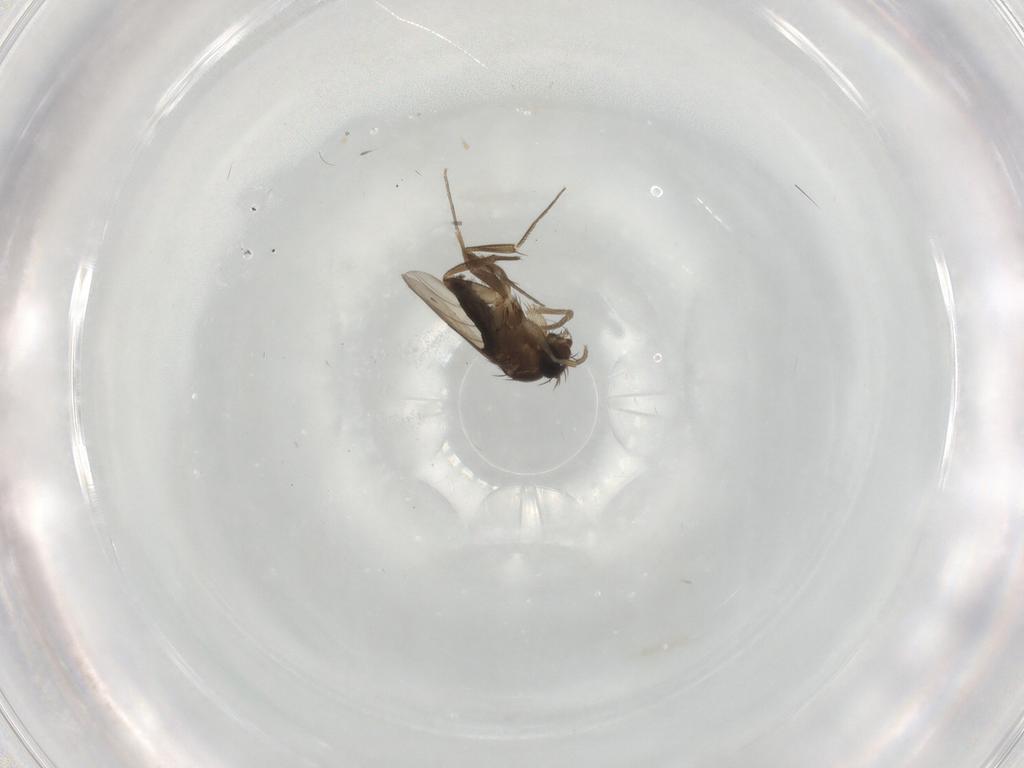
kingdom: Animalia
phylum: Arthropoda
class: Insecta
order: Diptera
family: Phoridae
